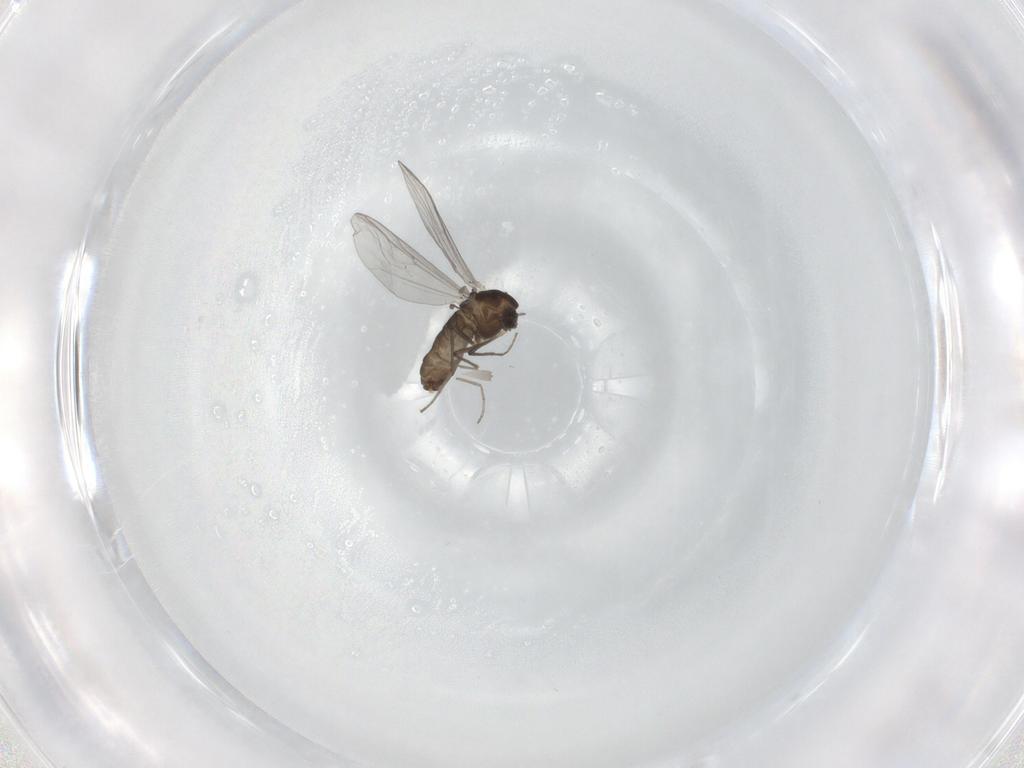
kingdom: Animalia
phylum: Arthropoda
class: Insecta
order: Diptera
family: Chironomidae
